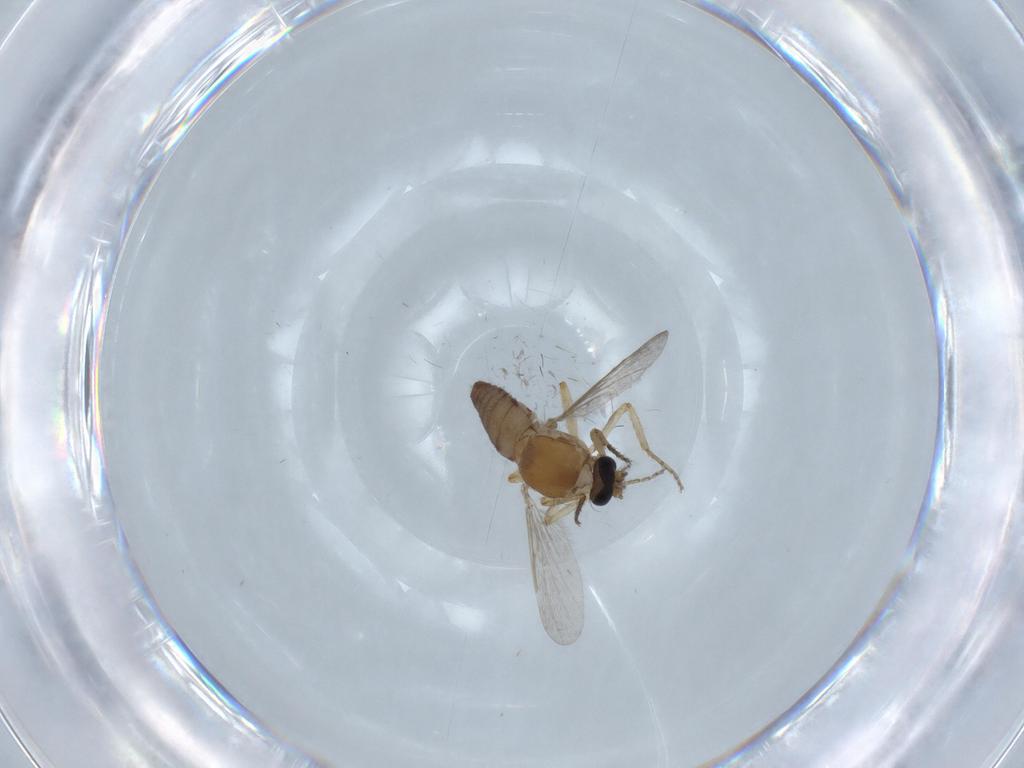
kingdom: Animalia
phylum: Arthropoda
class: Insecta
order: Diptera
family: Ceratopogonidae
